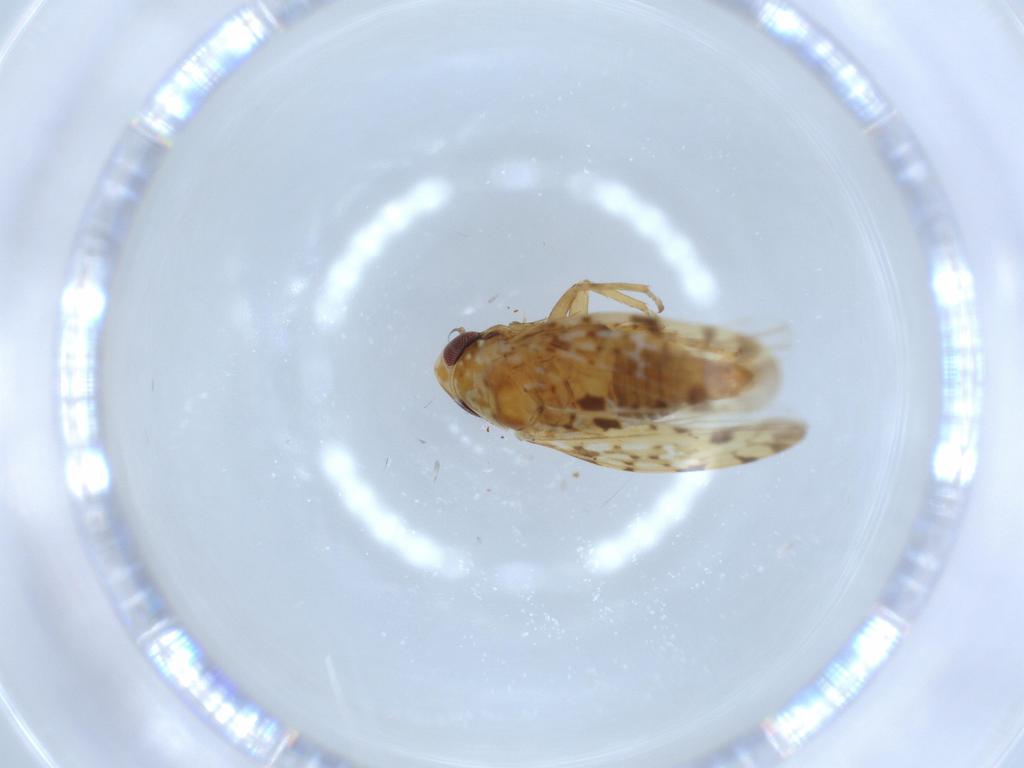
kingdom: Animalia
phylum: Arthropoda
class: Insecta
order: Hemiptera
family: Cicadellidae
